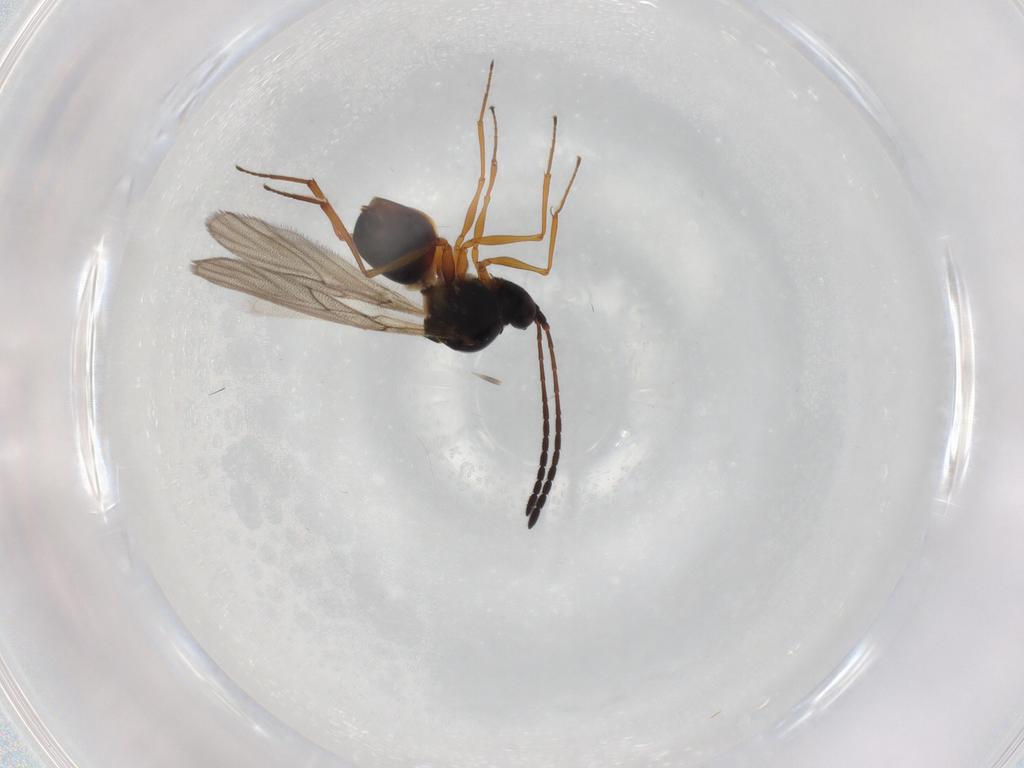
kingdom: Animalia
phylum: Arthropoda
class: Insecta
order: Hymenoptera
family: Figitidae
